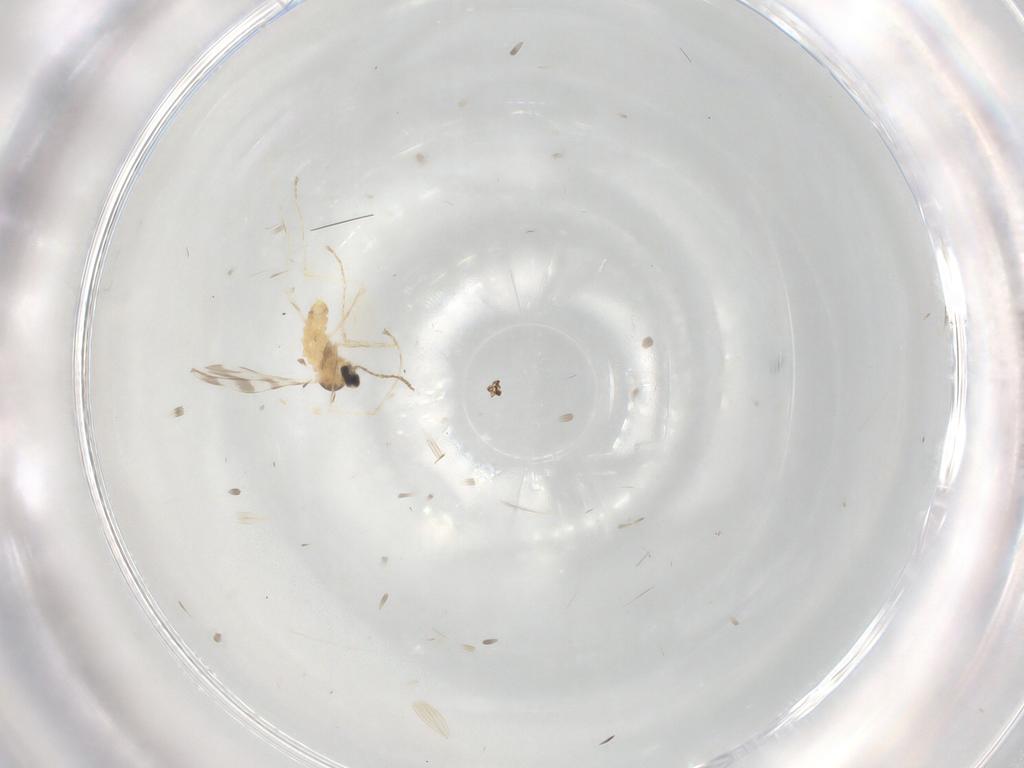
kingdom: Animalia
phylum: Arthropoda
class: Insecta
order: Diptera
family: Cecidomyiidae
